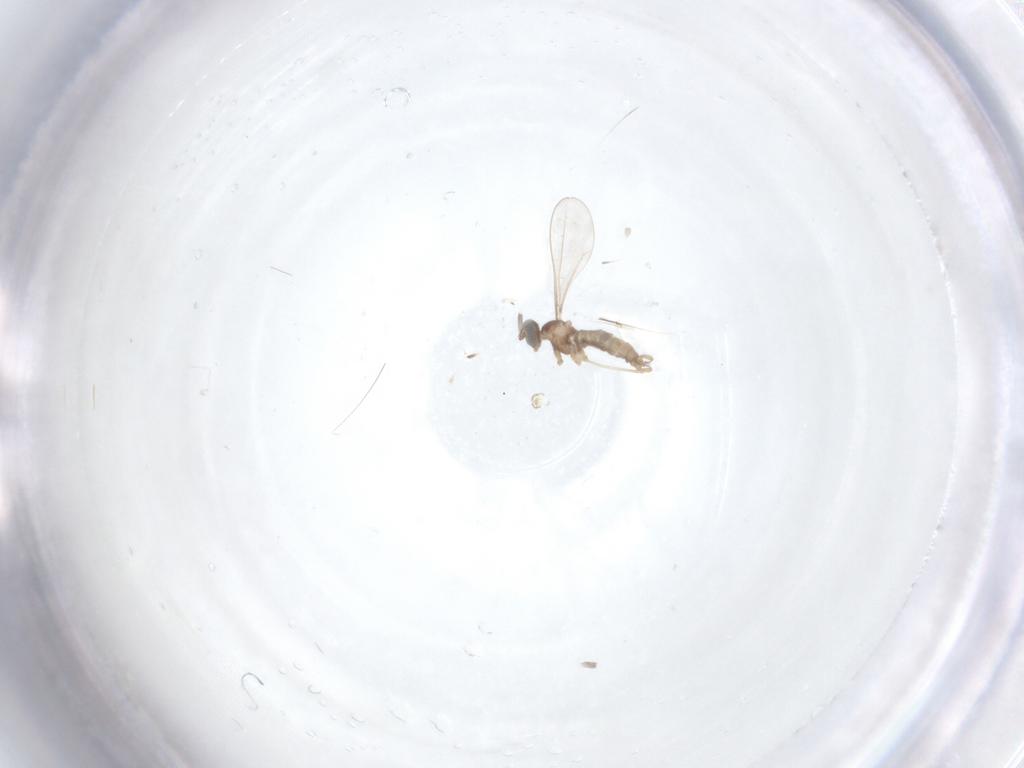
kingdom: Animalia
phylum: Arthropoda
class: Insecta
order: Diptera
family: Cecidomyiidae
